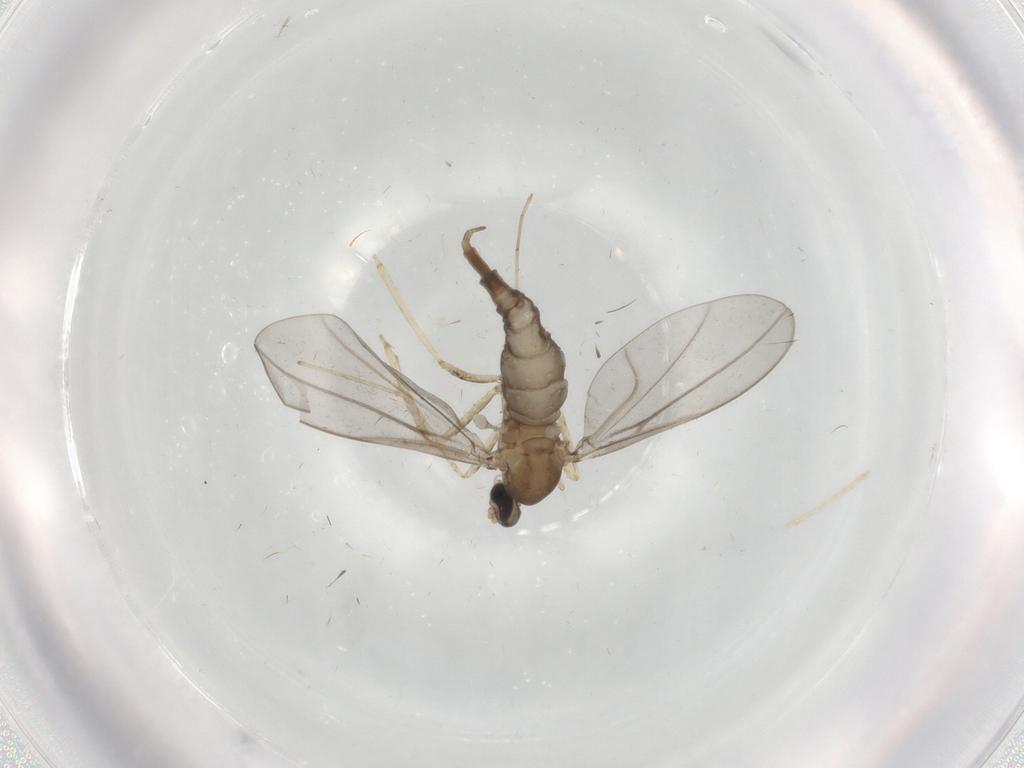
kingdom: Animalia
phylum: Arthropoda
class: Insecta
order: Diptera
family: Cecidomyiidae
